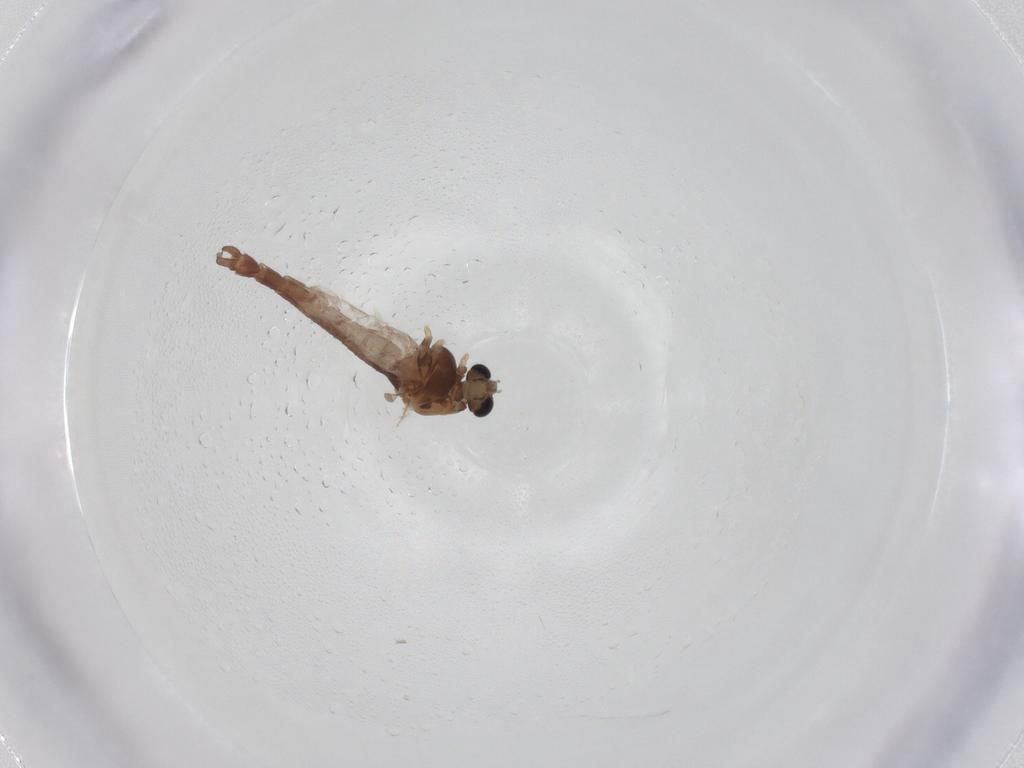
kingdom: Animalia
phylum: Arthropoda
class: Insecta
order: Diptera
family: Chironomidae
